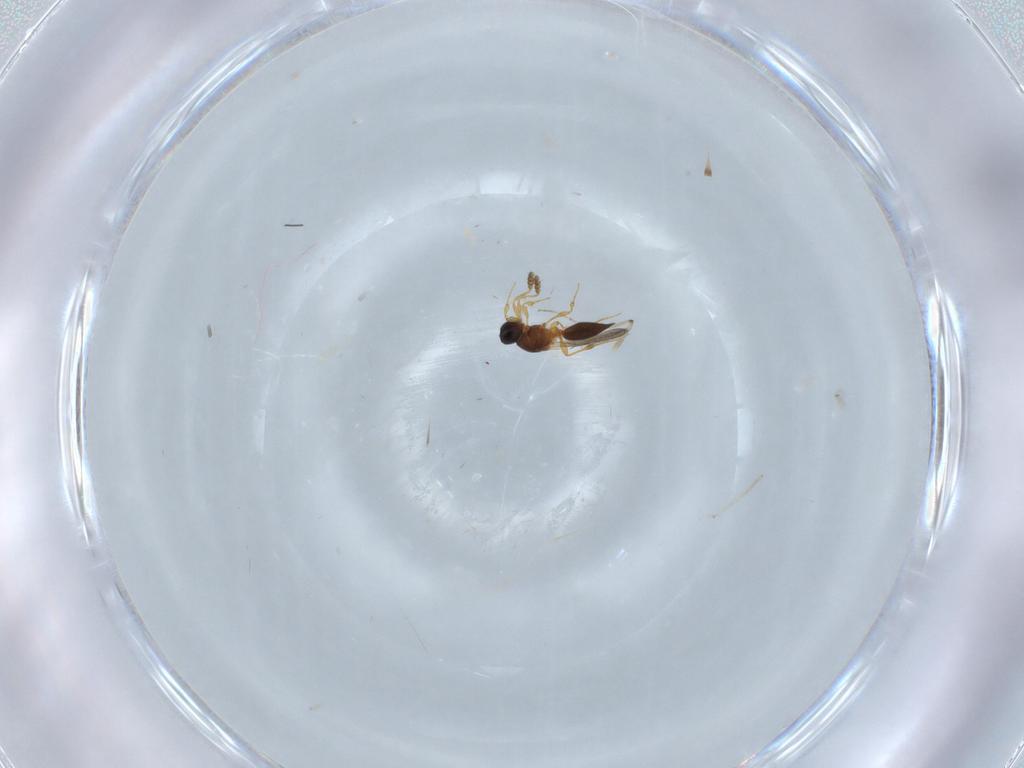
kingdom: Animalia
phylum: Arthropoda
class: Insecta
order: Hymenoptera
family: Platygastridae
